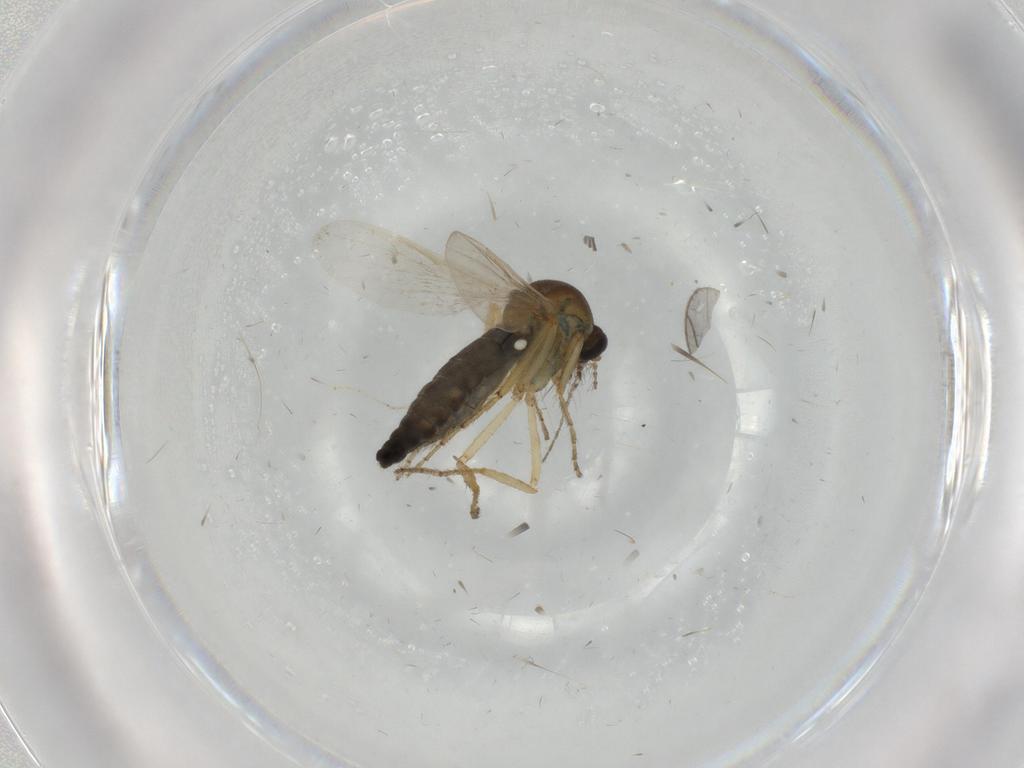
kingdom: Animalia
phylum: Arthropoda
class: Insecta
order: Diptera
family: Ceratopogonidae
